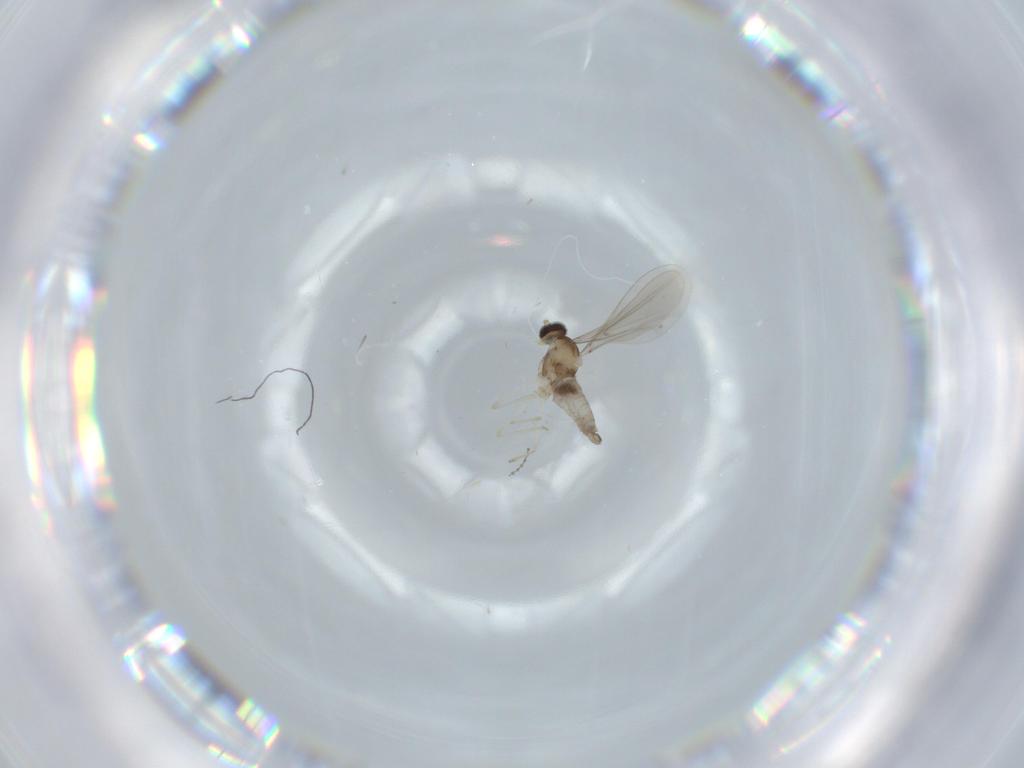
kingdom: Animalia
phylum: Arthropoda
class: Insecta
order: Diptera
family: Cecidomyiidae
